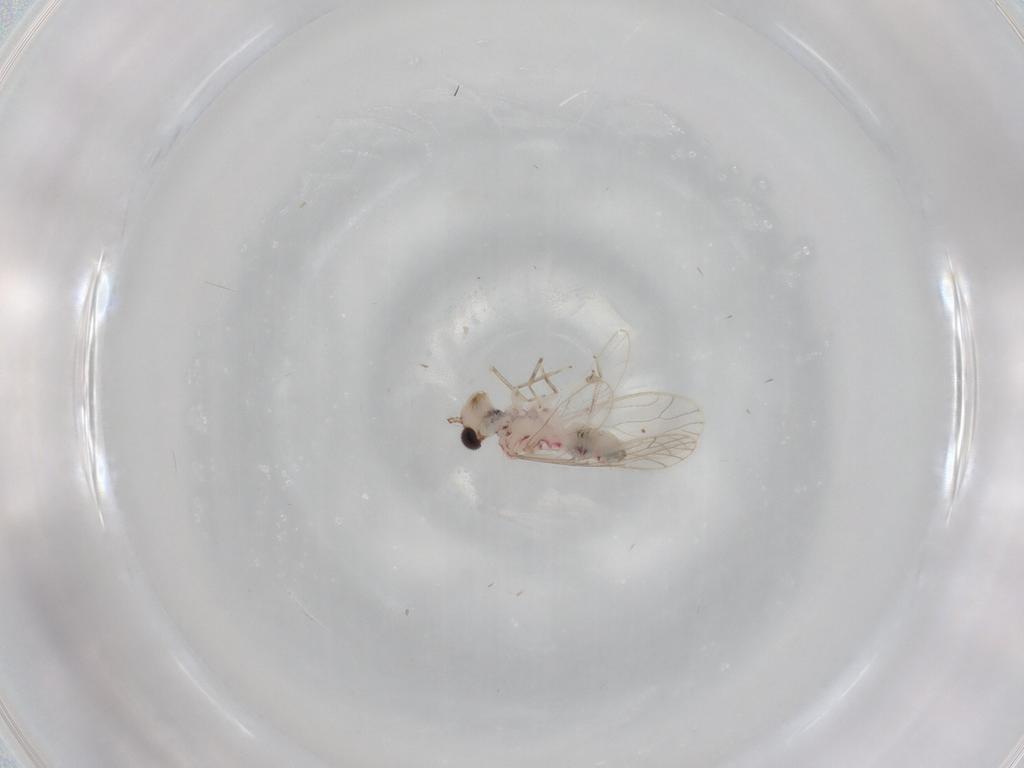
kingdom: Animalia
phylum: Arthropoda
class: Insecta
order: Psocodea
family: Caeciliusidae
